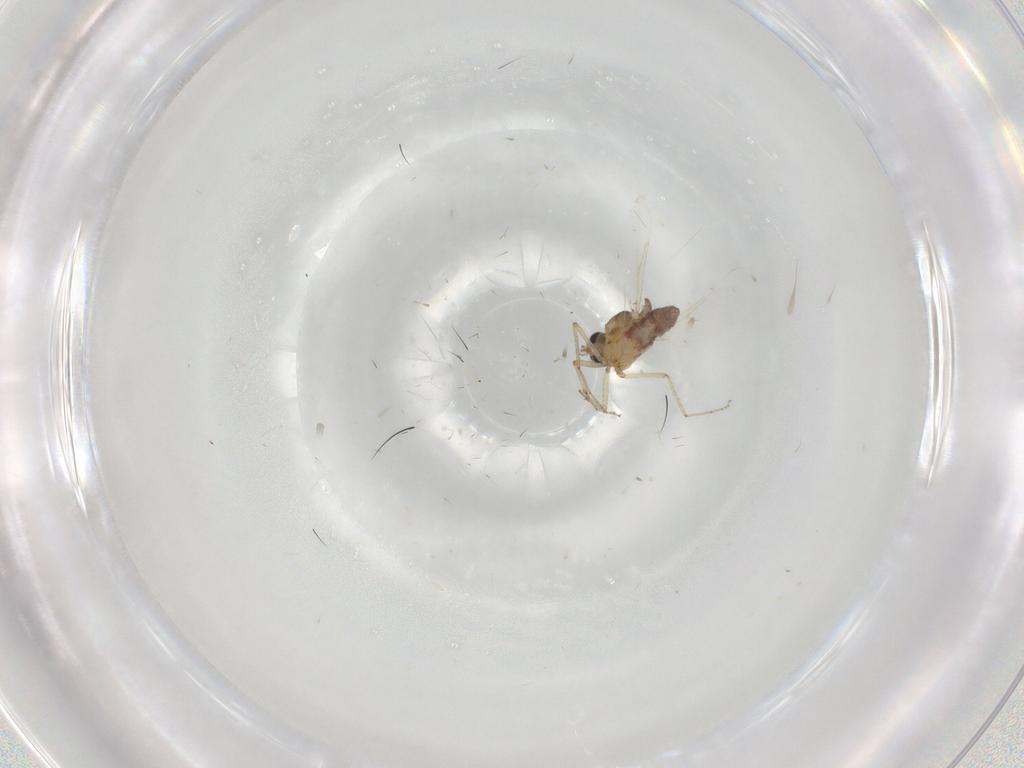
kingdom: Animalia
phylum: Arthropoda
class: Insecta
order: Diptera
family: Ceratopogonidae
